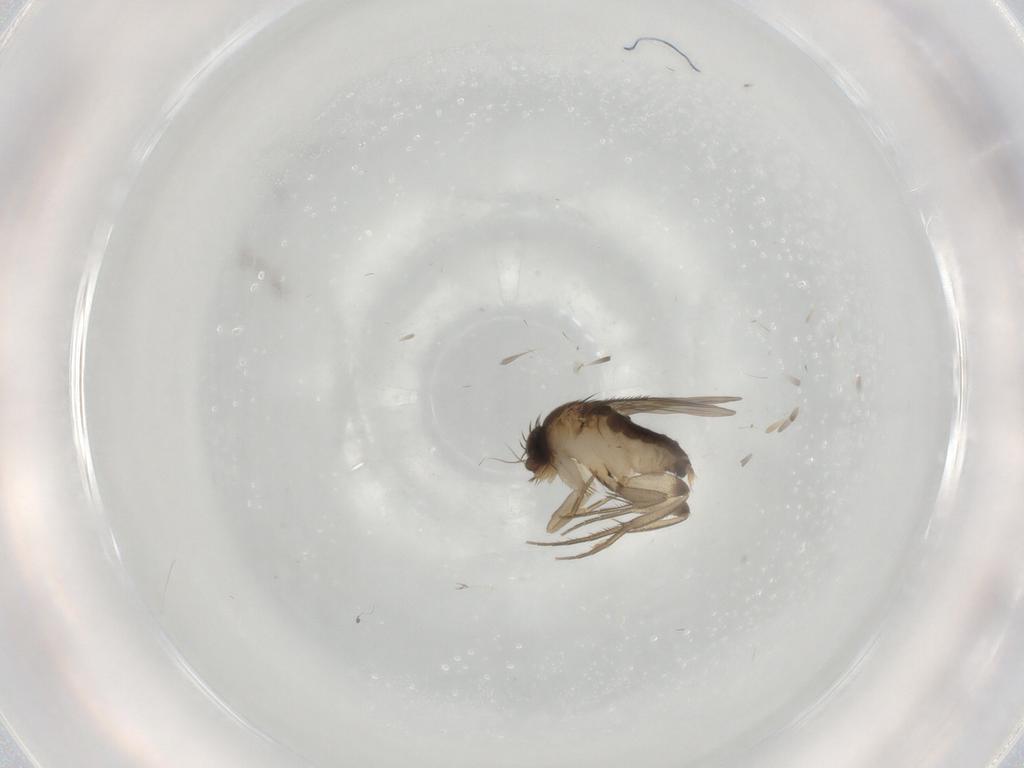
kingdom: Animalia
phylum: Arthropoda
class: Insecta
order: Diptera
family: Phoridae
